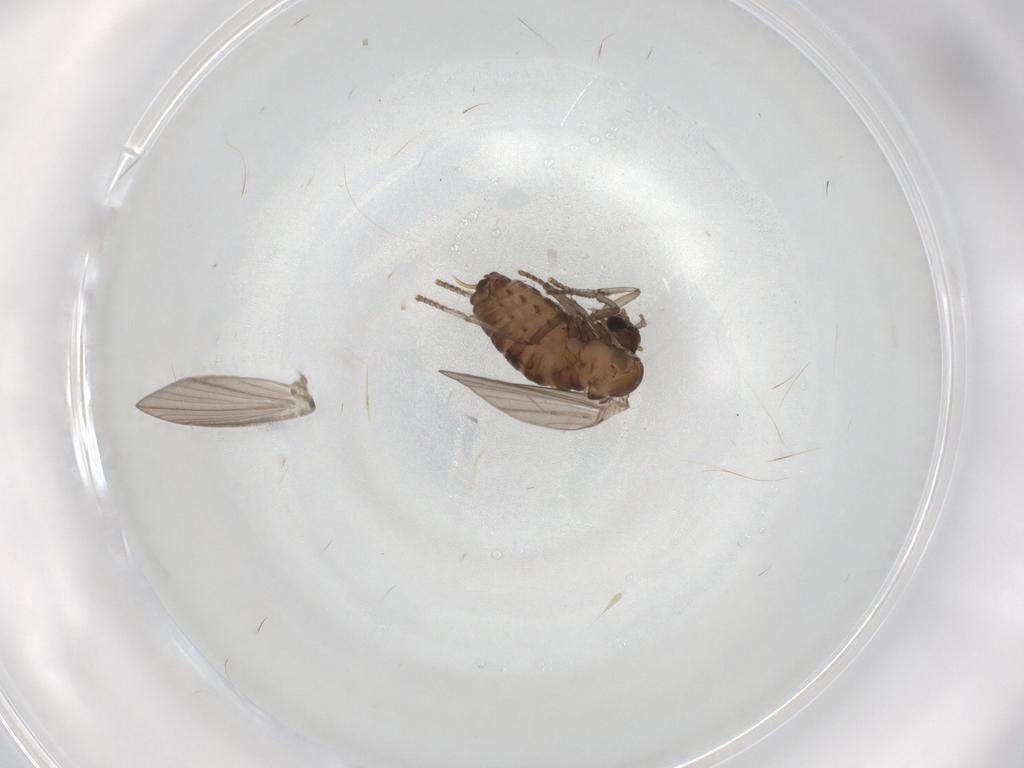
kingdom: Animalia
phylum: Arthropoda
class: Insecta
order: Diptera
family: Psychodidae
